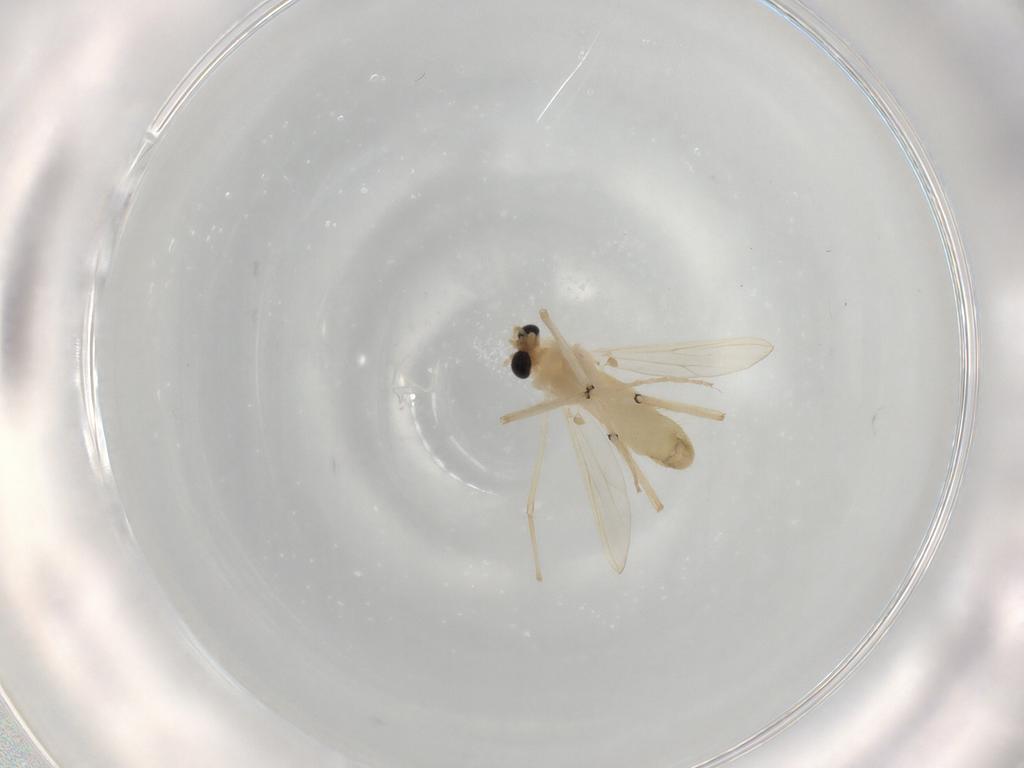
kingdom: Animalia
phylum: Arthropoda
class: Insecta
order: Diptera
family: Chironomidae
